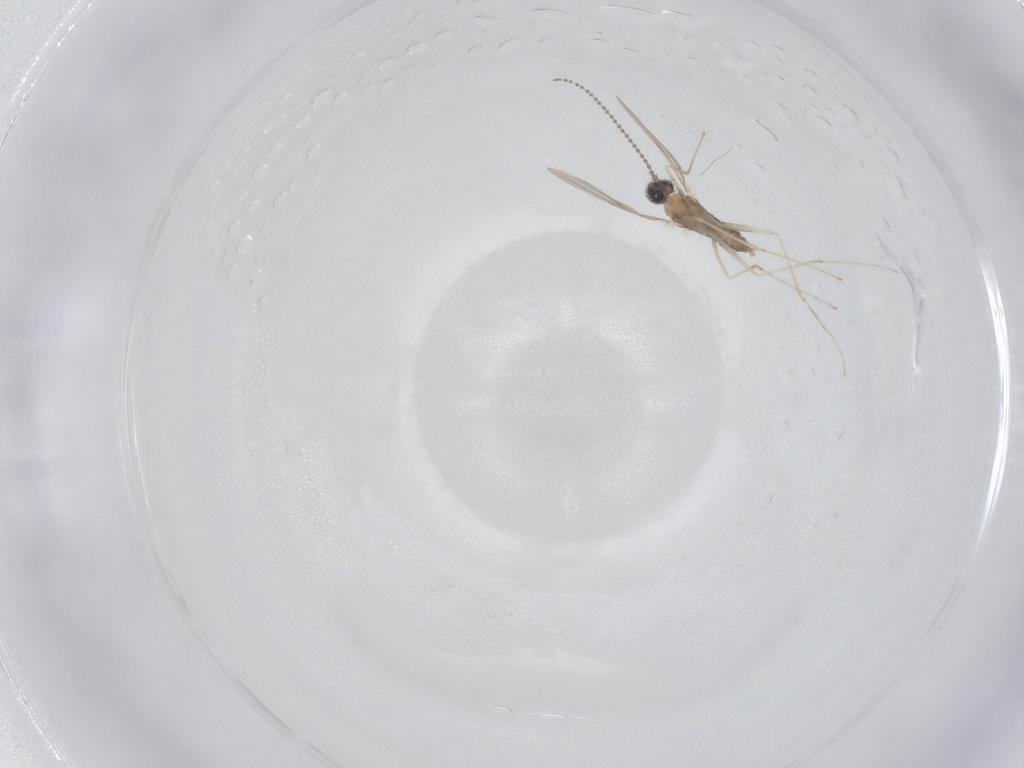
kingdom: Animalia
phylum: Arthropoda
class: Insecta
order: Diptera
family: Cecidomyiidae
